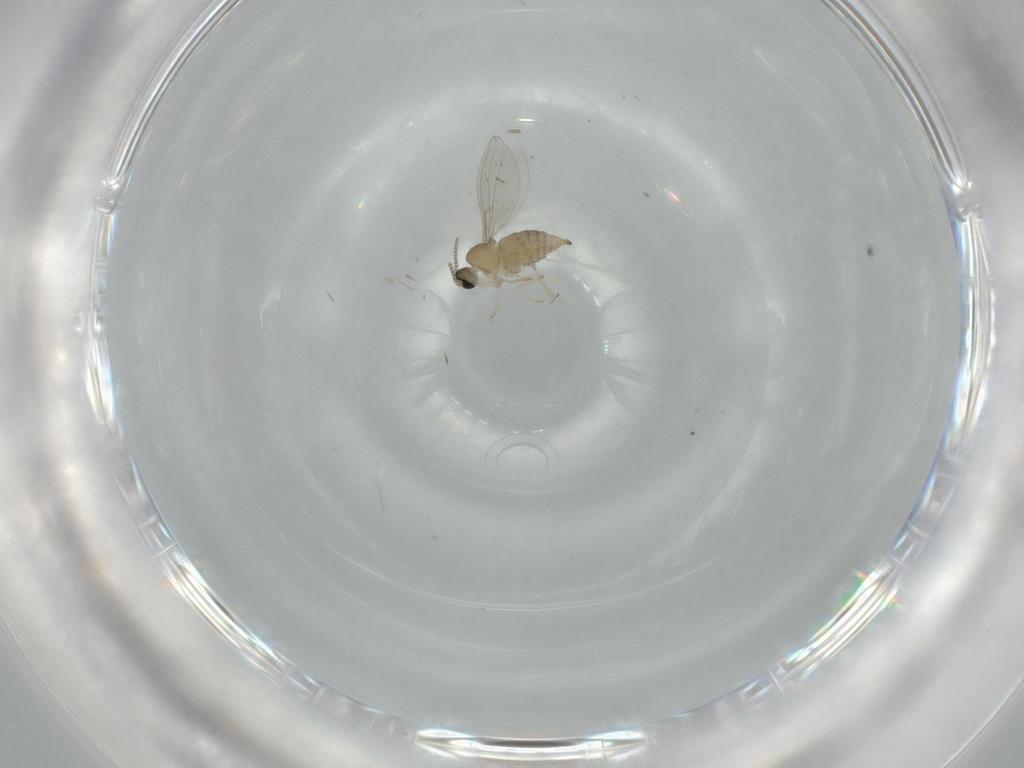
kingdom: Animalia
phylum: Arthropoda
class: Insecta
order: Diptera
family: Cecidomyiidae
